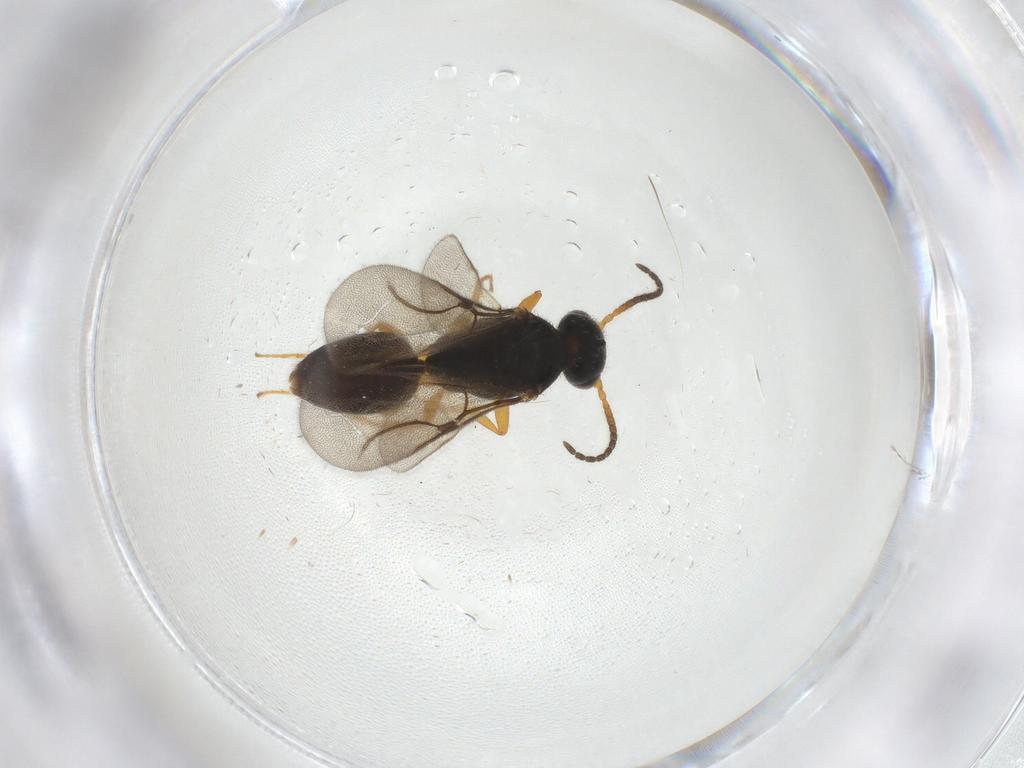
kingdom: Animalia
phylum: Arthropoda
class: Insecta
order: Hymenoptera
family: Bethylidae
